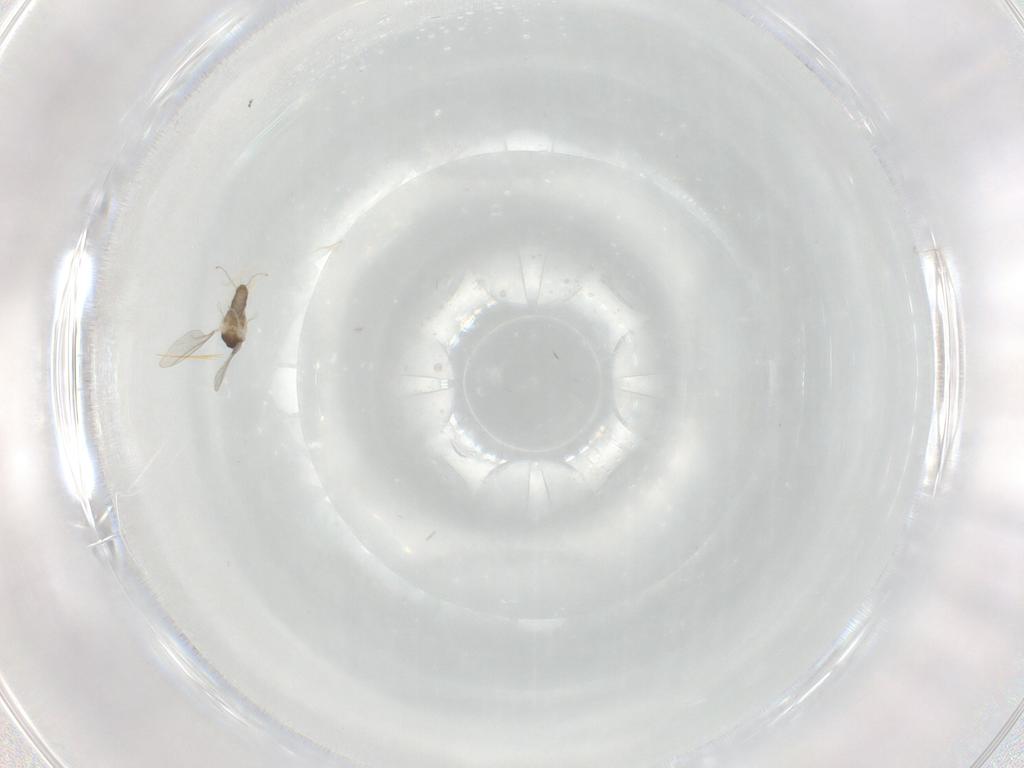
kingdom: Animalia
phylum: Arthropoda
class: Insecta
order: Diptera
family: Cecidomyiidae
